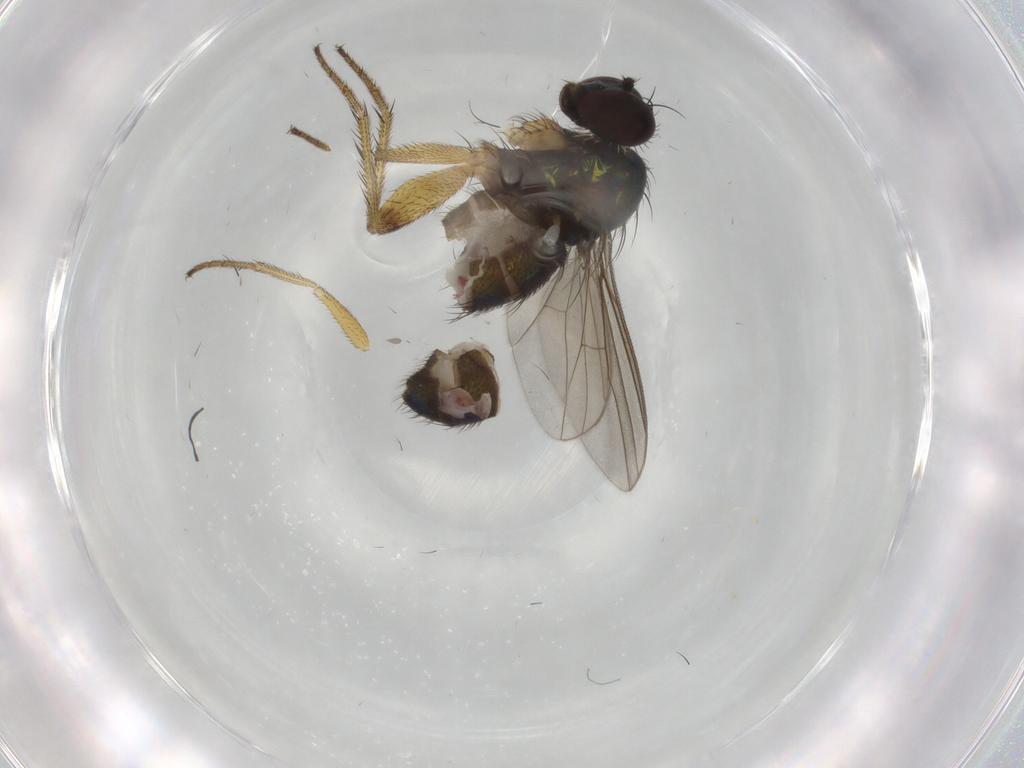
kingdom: Animalia
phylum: Arthropoda
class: Insecta
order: Diptera
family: Dolichopodidae
